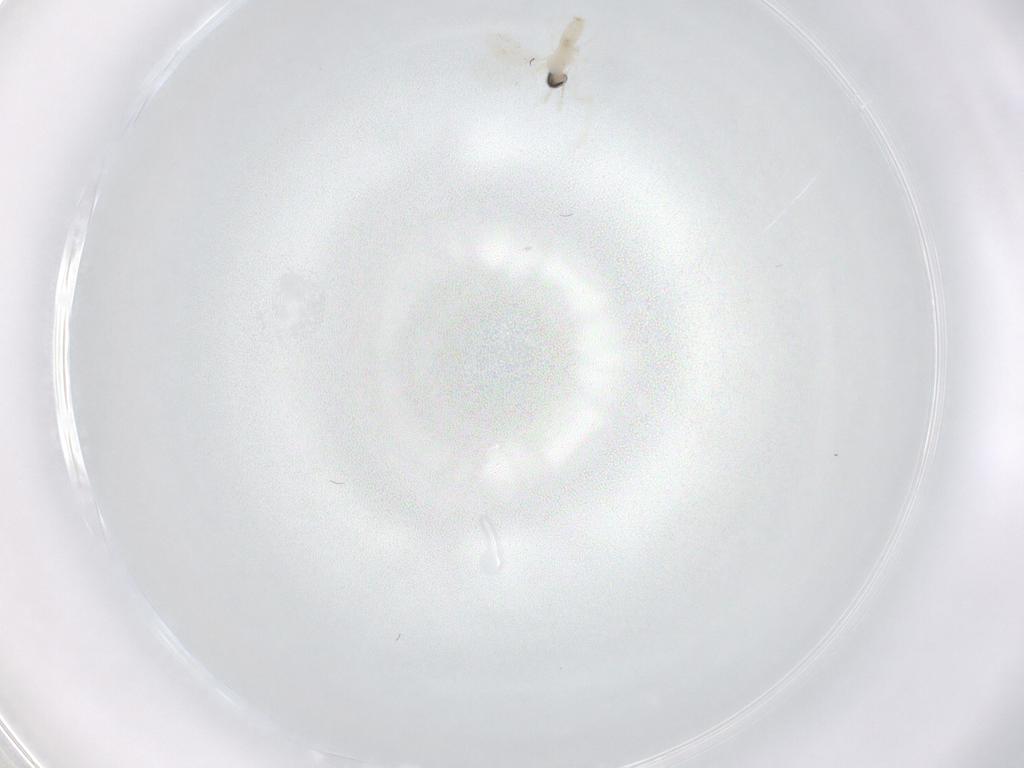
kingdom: Animalia
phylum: Arthropoda
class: Insecta
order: Diptera
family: Cecidomyiidae
